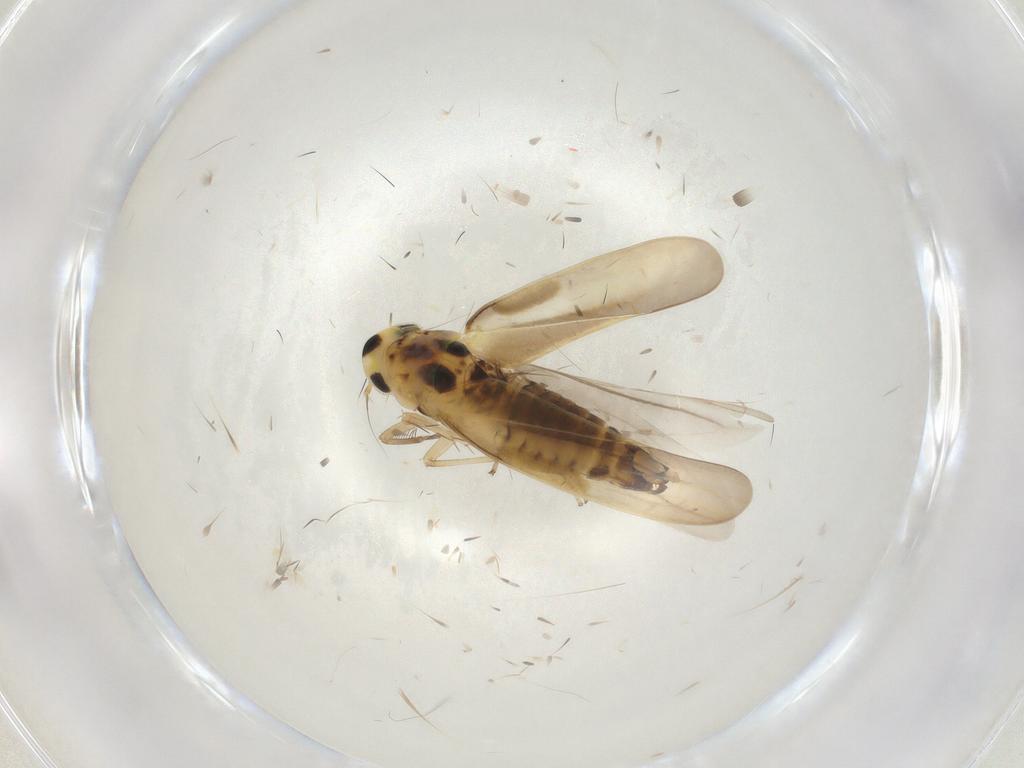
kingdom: Animalia
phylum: Arthropoda
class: Insecta
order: Hemiptera
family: Cicadellidae
